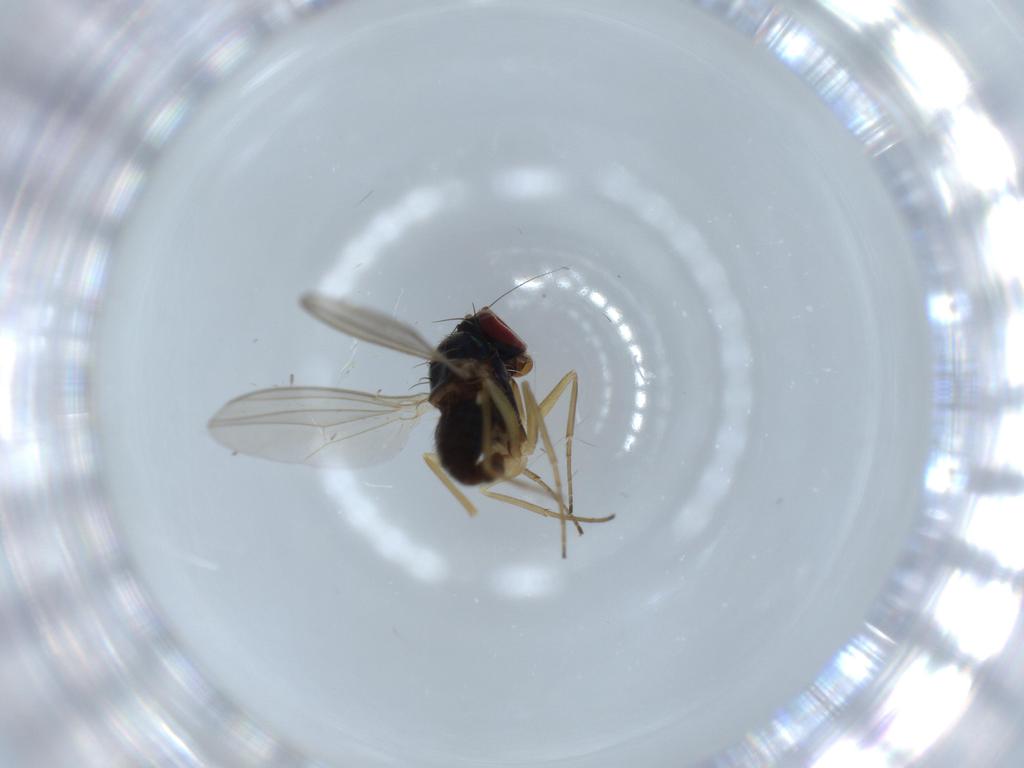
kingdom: Animalia
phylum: Arthropoda
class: Insecta
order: Diptera
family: Dolichopodidae
